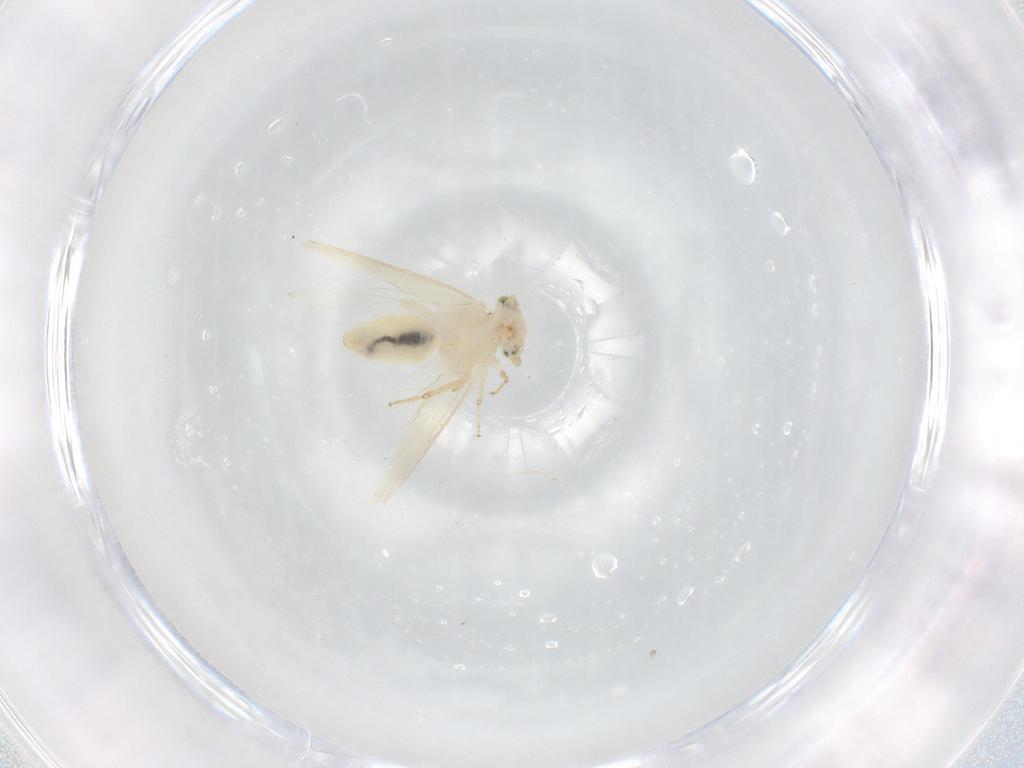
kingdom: Animalia
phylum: Arthropoda
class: Insecta
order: Psocodea
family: Lepidopsocidae
